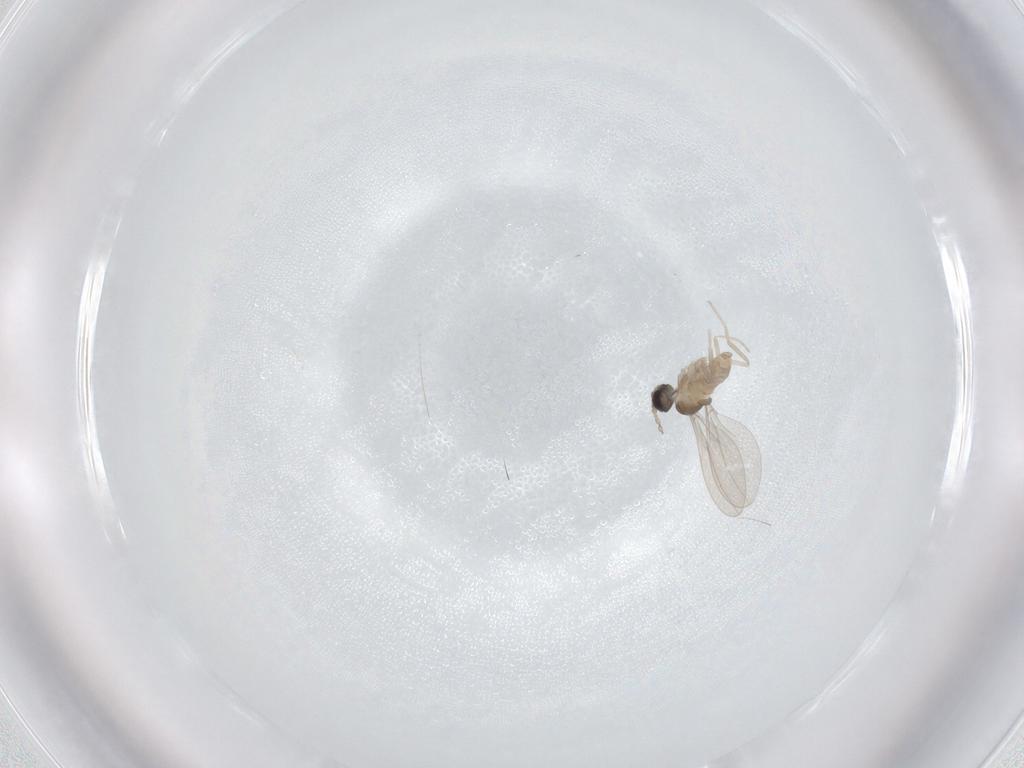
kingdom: Animalia
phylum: Arthropoda
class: Insecta
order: Diptera
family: Cecidomyiidae
